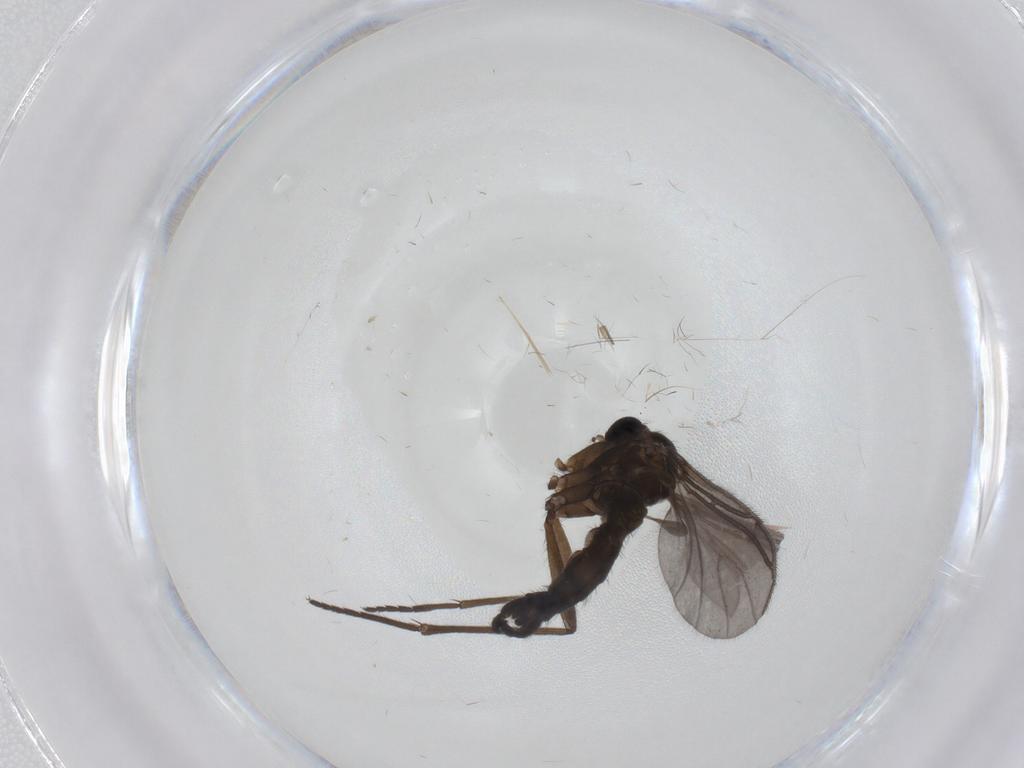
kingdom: Animalia
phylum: Arthropoda
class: Insecta
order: Diptera
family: Sciaridae
